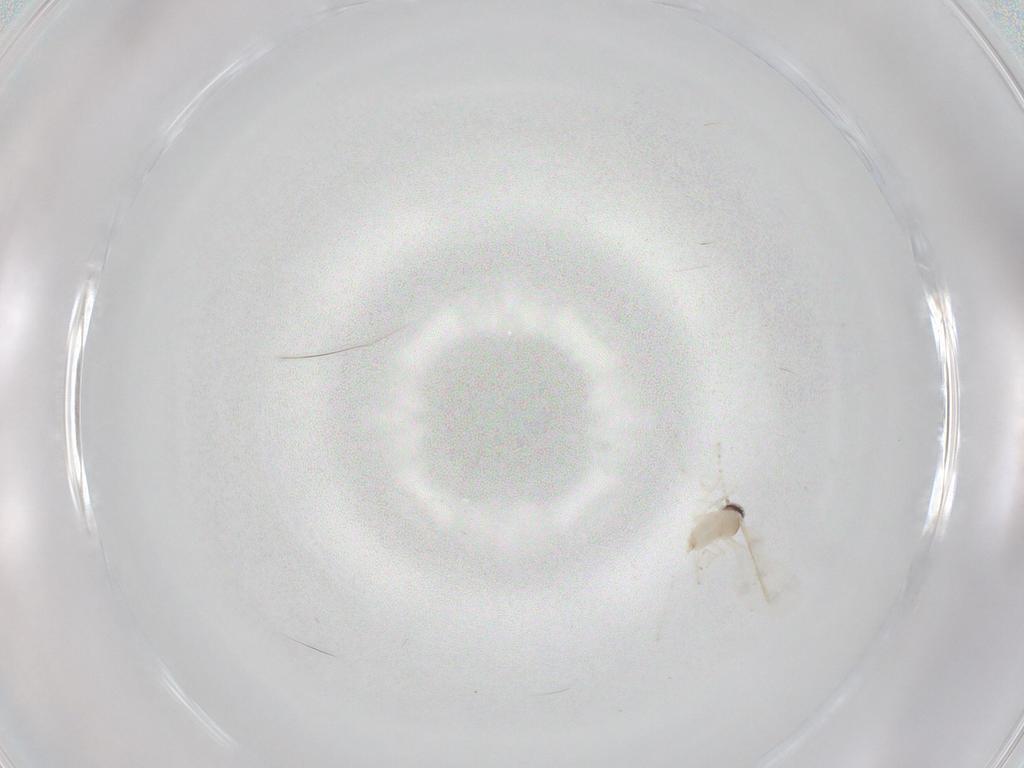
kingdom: Animalia
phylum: Arthropoda
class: Insecta
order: Diptera
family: Cecidomyiidae
